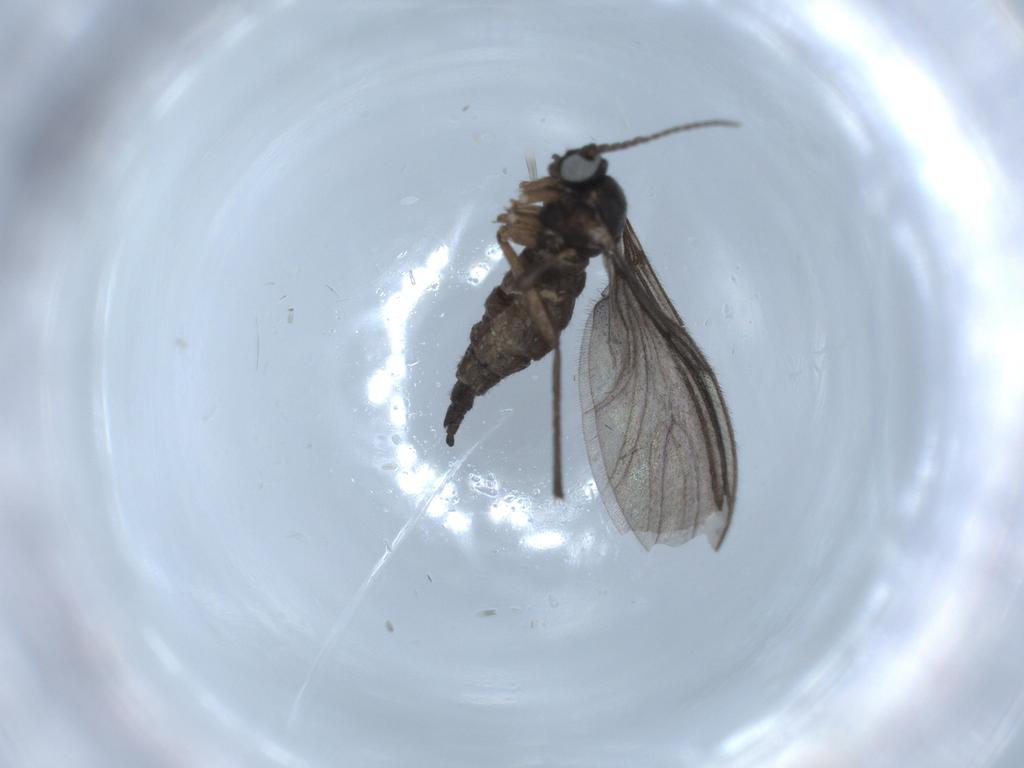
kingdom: Animalia
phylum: Arthropoda
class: Insecta
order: Diptera
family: Sciaridae
